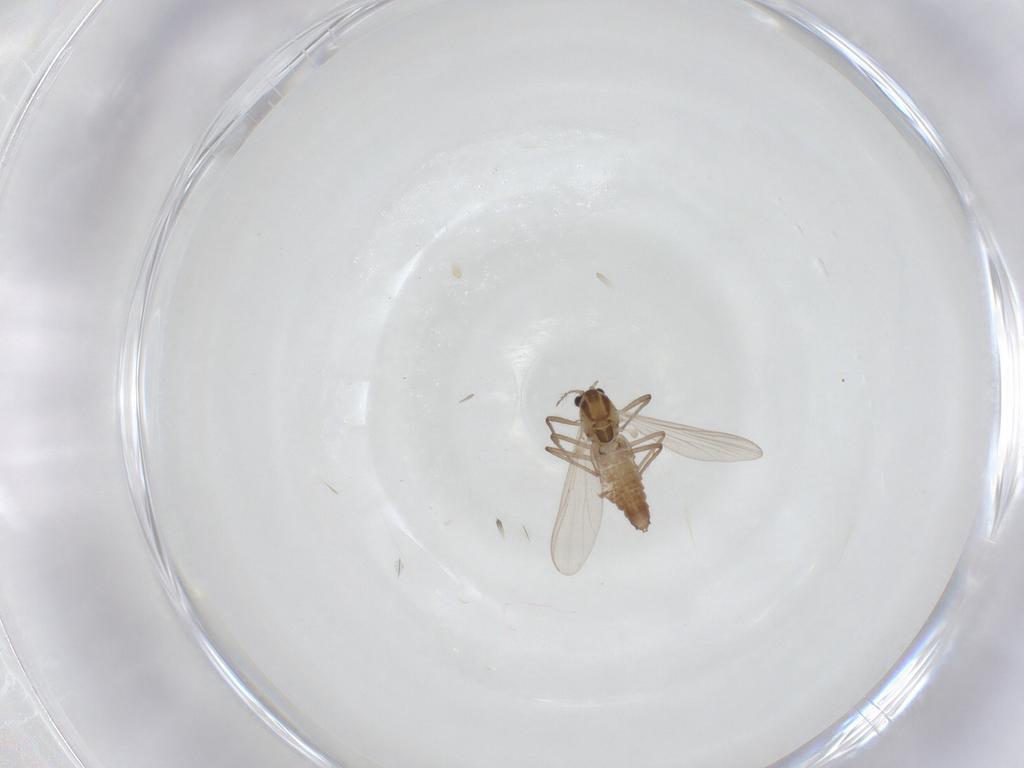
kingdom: Animalia
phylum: Arthropoda
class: Insecta
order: Diptera
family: Chironomidae
